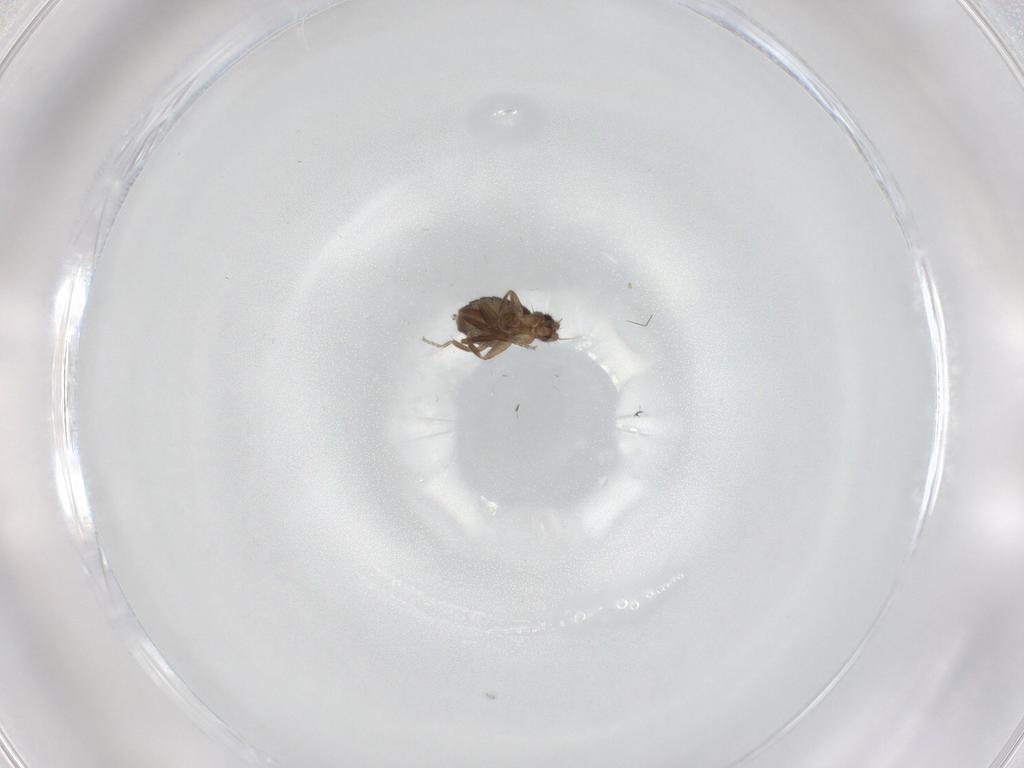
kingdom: Animalia
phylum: Arthropoda
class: Insecta
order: Diptera
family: Phoridae
